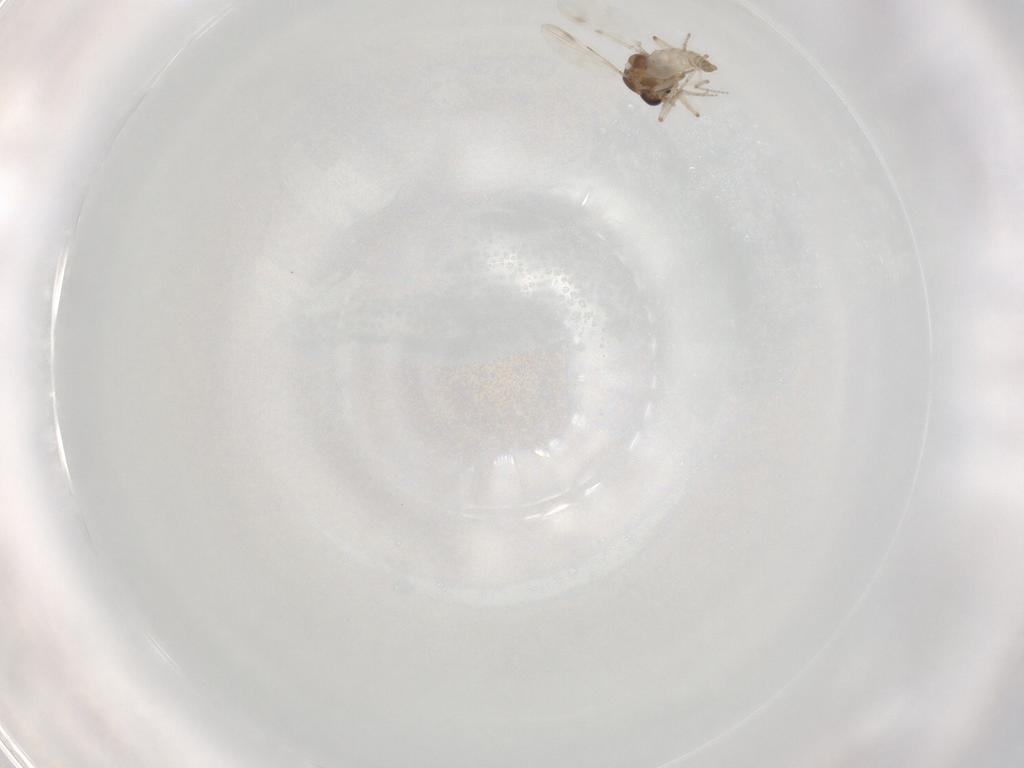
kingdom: Animalia
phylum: Arthropoda
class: Insecta
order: Diptera
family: Ceratopogonidae
